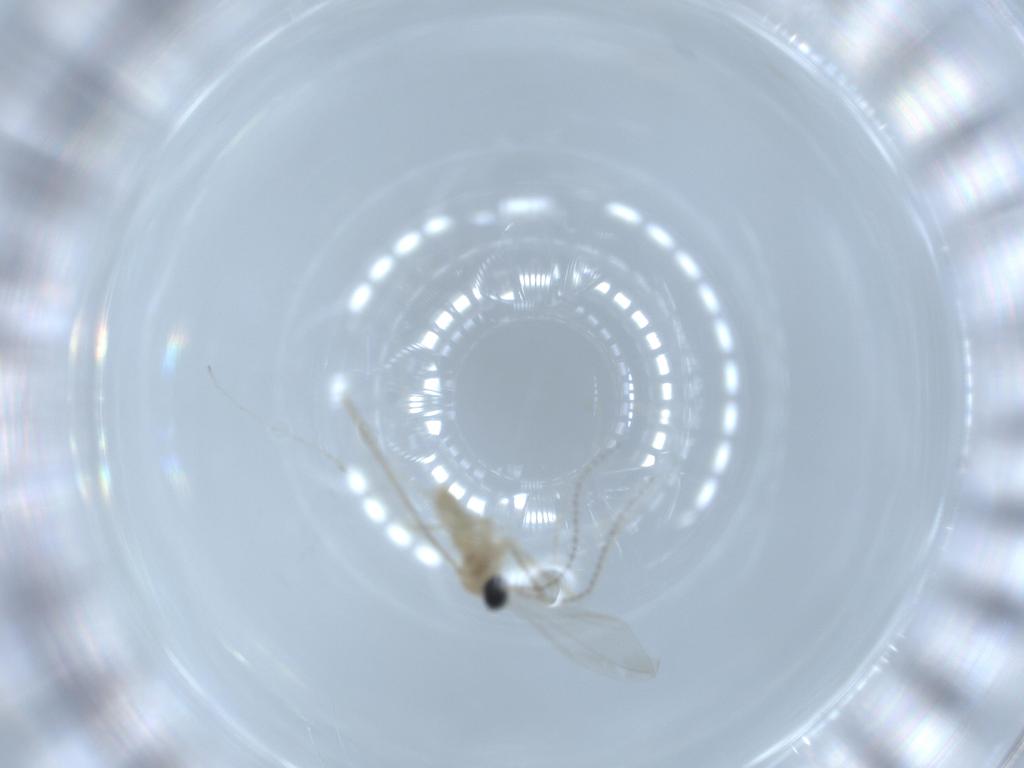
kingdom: Animalia
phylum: Arthropoda
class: Insecta
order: Diptera
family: Cecidomyiidae
